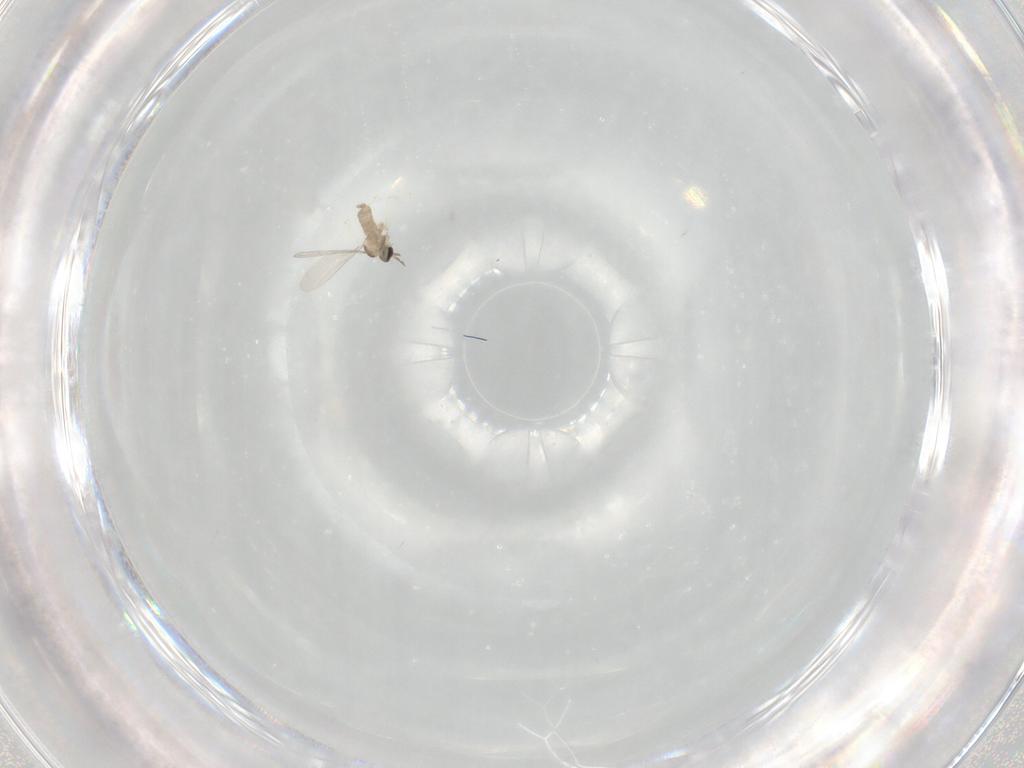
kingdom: Animalia
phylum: Arthropoda
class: Insecta
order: Diptera
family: Cecidomyiidae
